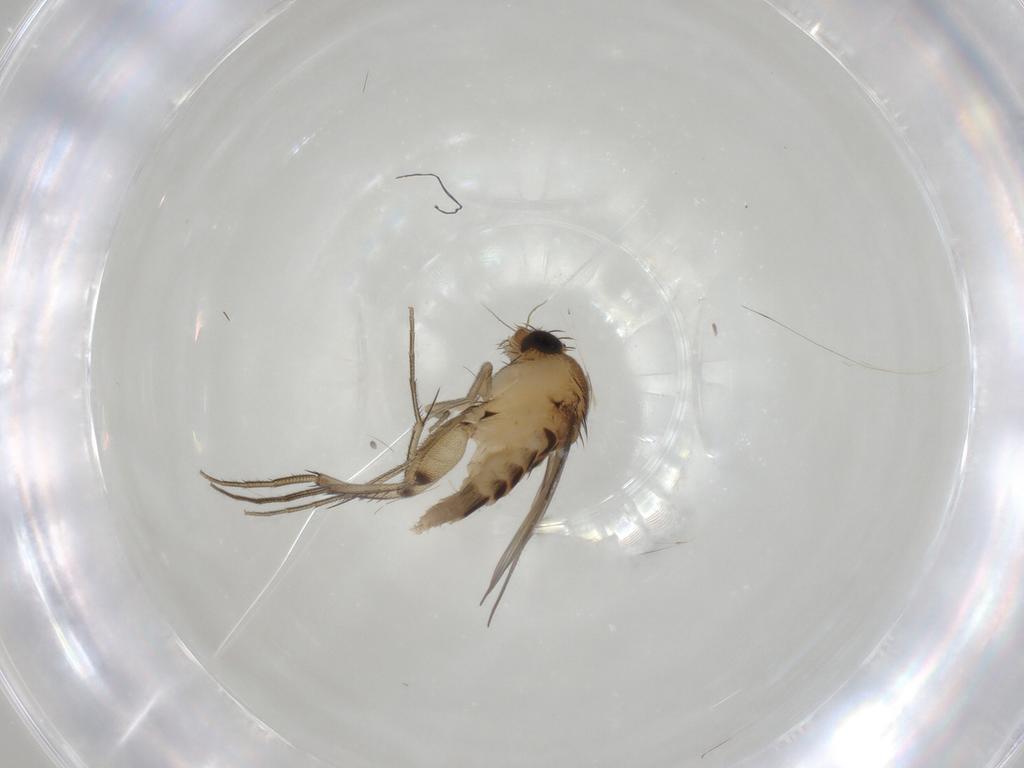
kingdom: Animalia
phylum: Arthropoda
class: Insecta
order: Diptera
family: Phoridae
